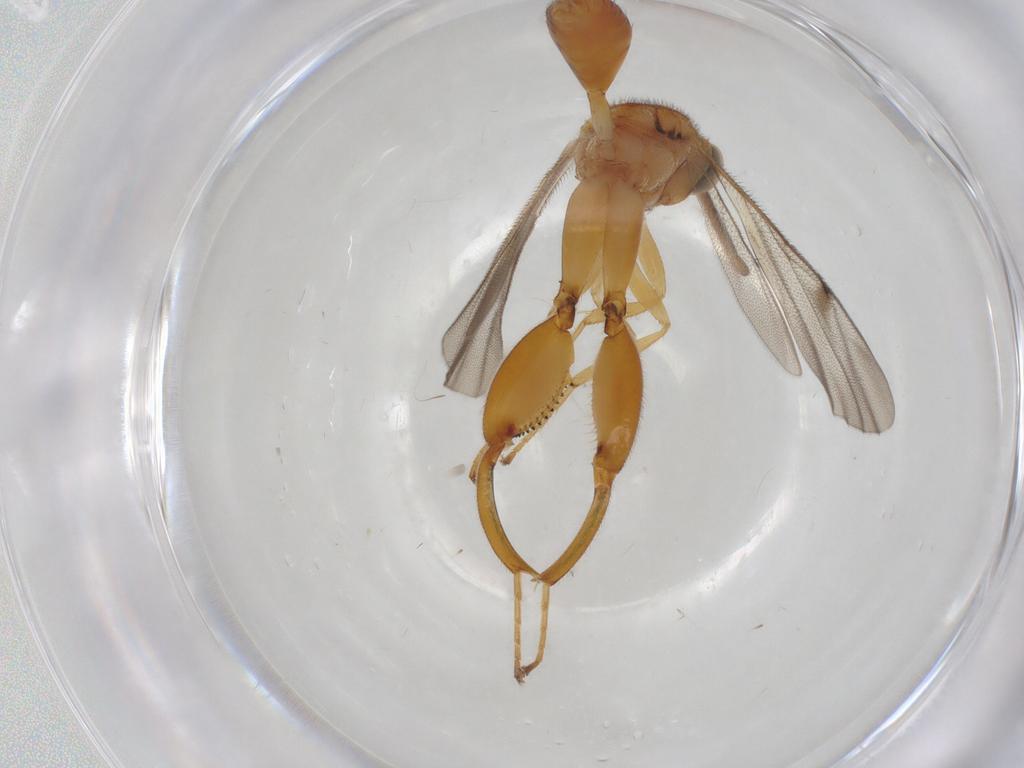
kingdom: Animalia
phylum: Arthropoda
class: Insecta
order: Hymenoptera
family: Chalcididae
